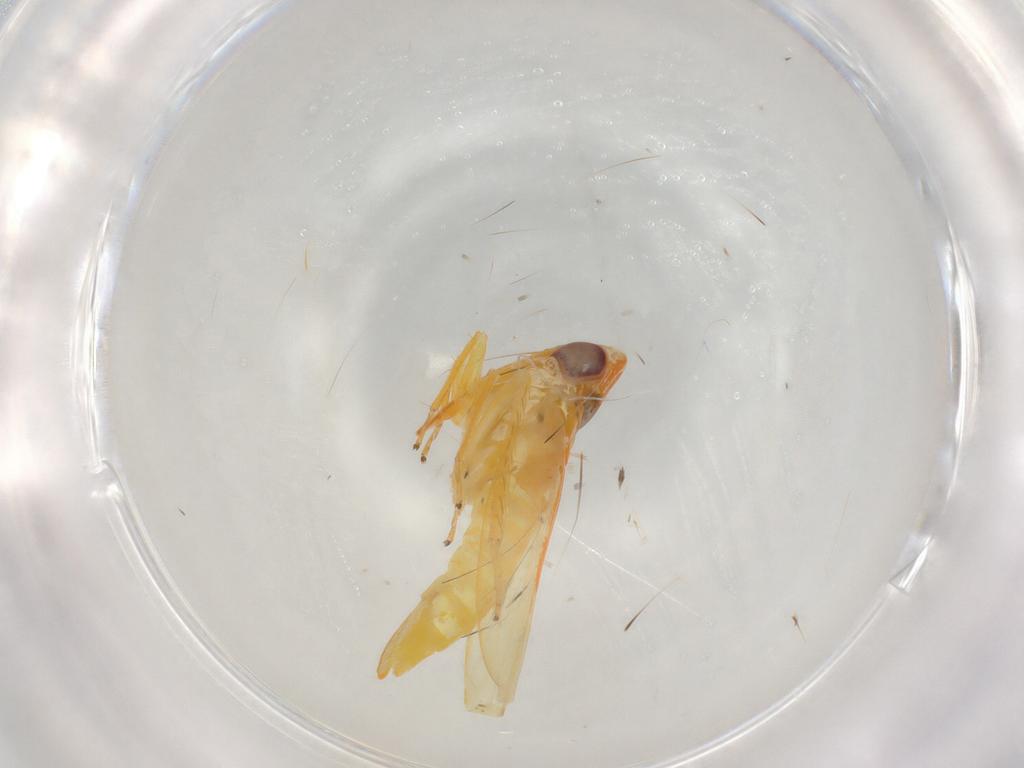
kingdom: Animalia
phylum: Arthropoda
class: Insecta
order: Hemiptera
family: Cicadellidae
